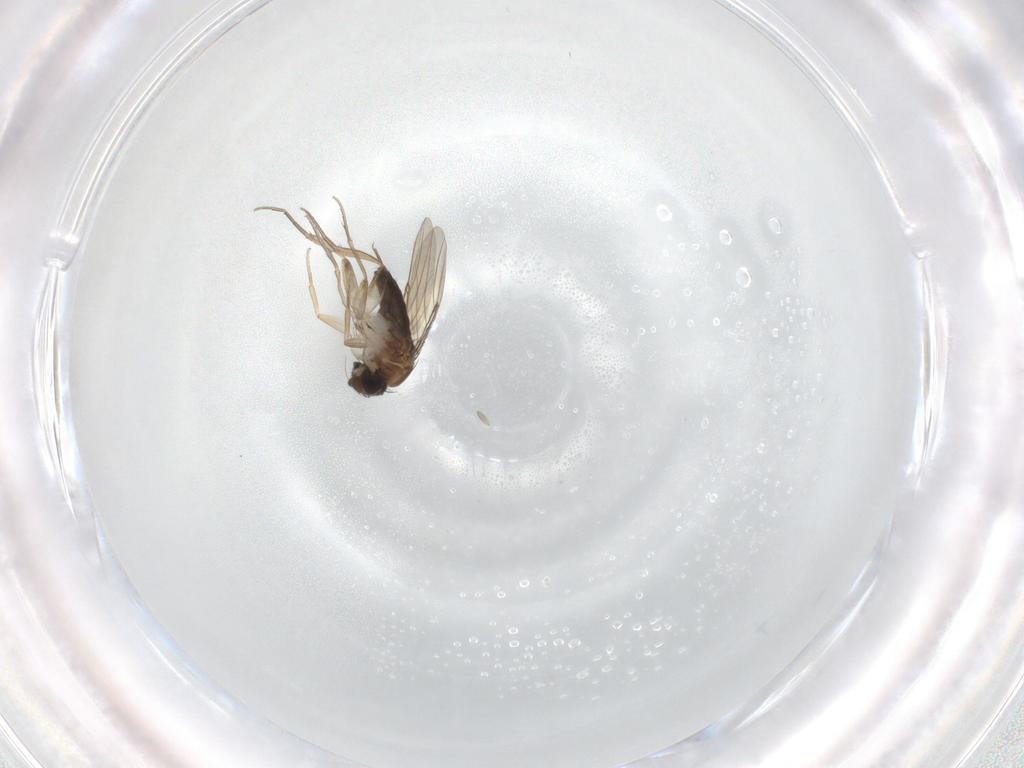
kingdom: Animalia
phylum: Arthropoda
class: Insecta
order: Diptera
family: Phoridae
